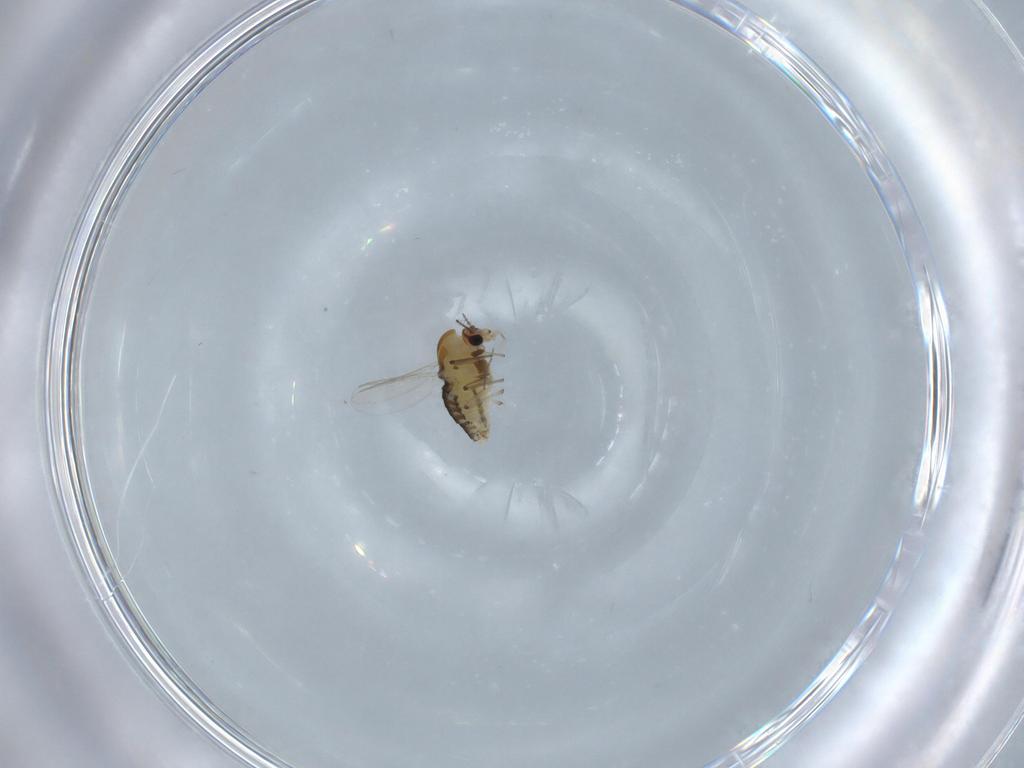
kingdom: Animalia
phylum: Arthropoda
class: Insecta
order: Diptera
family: Chironomidae
